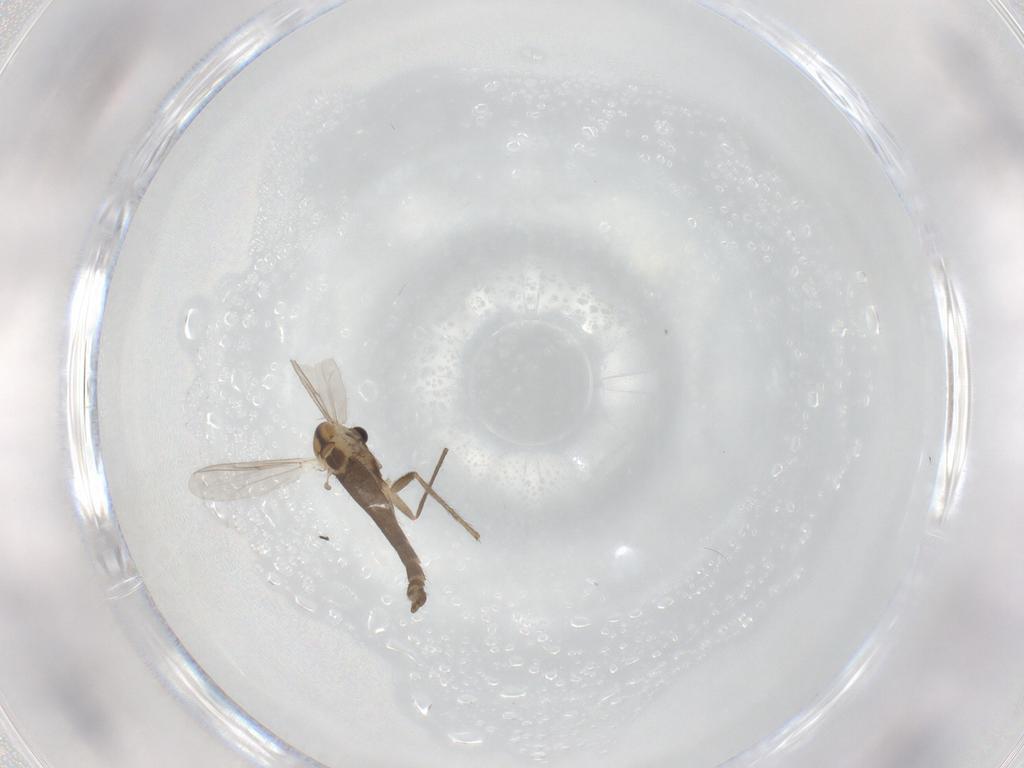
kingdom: Animalia
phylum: Arthropoda
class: Insecta
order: Diptera
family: Chironomidae
